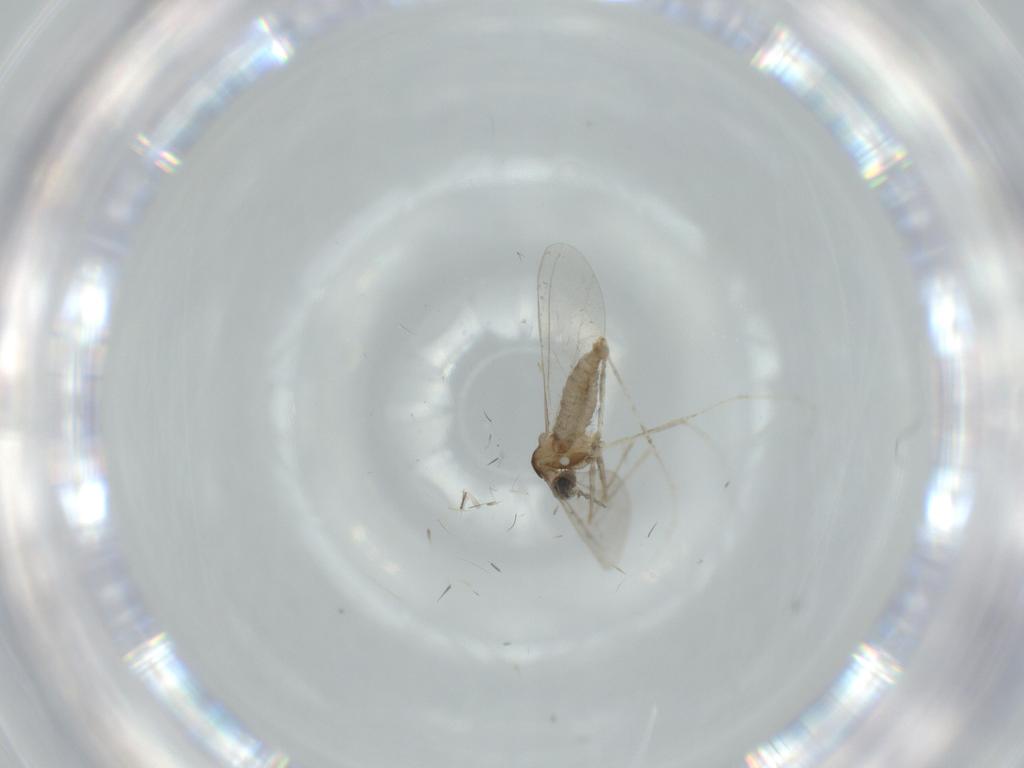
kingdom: Animalia
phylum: Arthropoda
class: Insecta
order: Diptera
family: Cecidomyiidae
